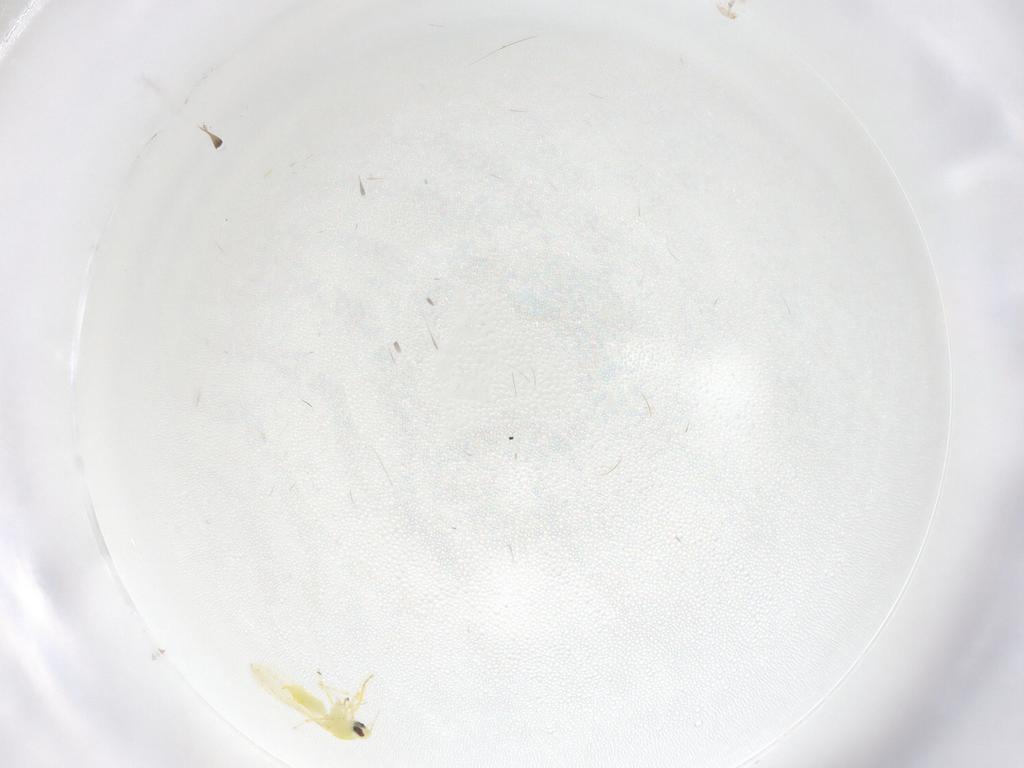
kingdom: Animalia
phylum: Arthropoda
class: Insecta
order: Hemiptera
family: Aleyrodidae
